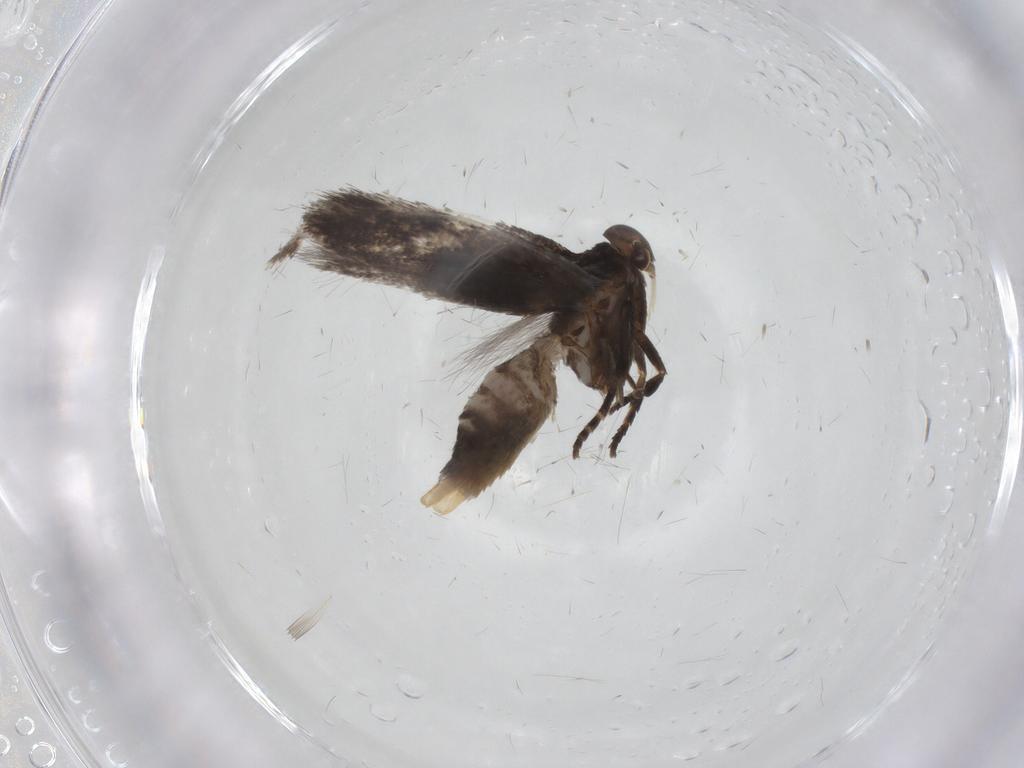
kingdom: Animalia
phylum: Arthropoda
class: Insecta
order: Lepidoptera
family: Elachistidae
